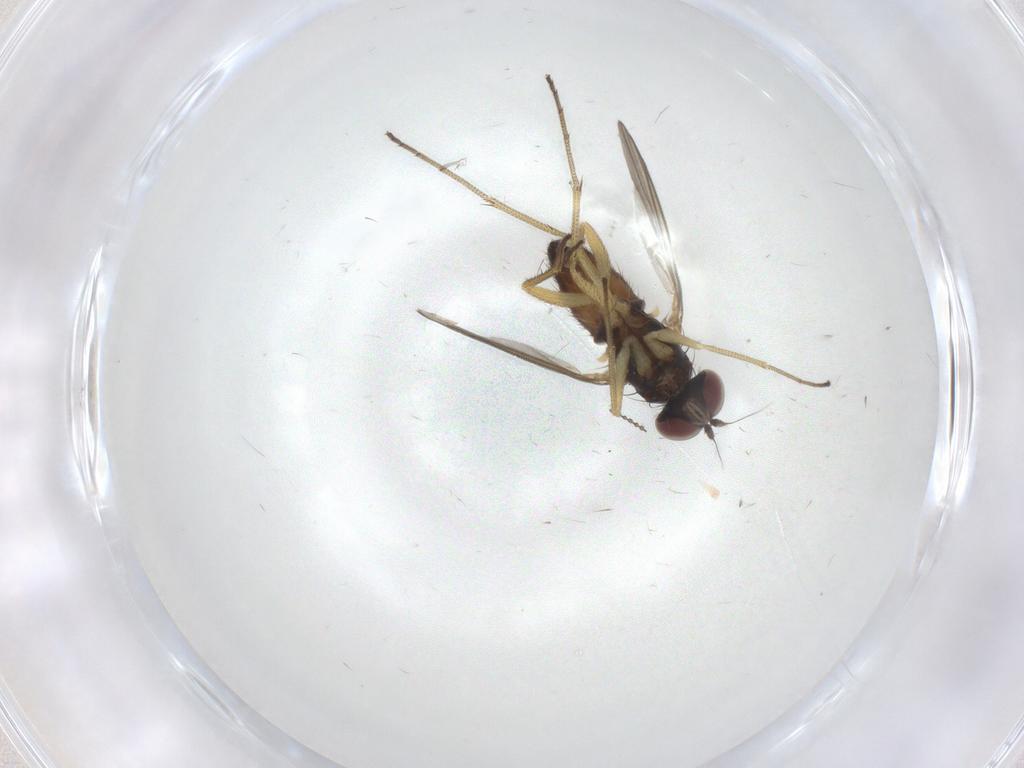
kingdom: Animalia
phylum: Arthropoda
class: Insecta
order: Diptera
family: Dolichopodidae
